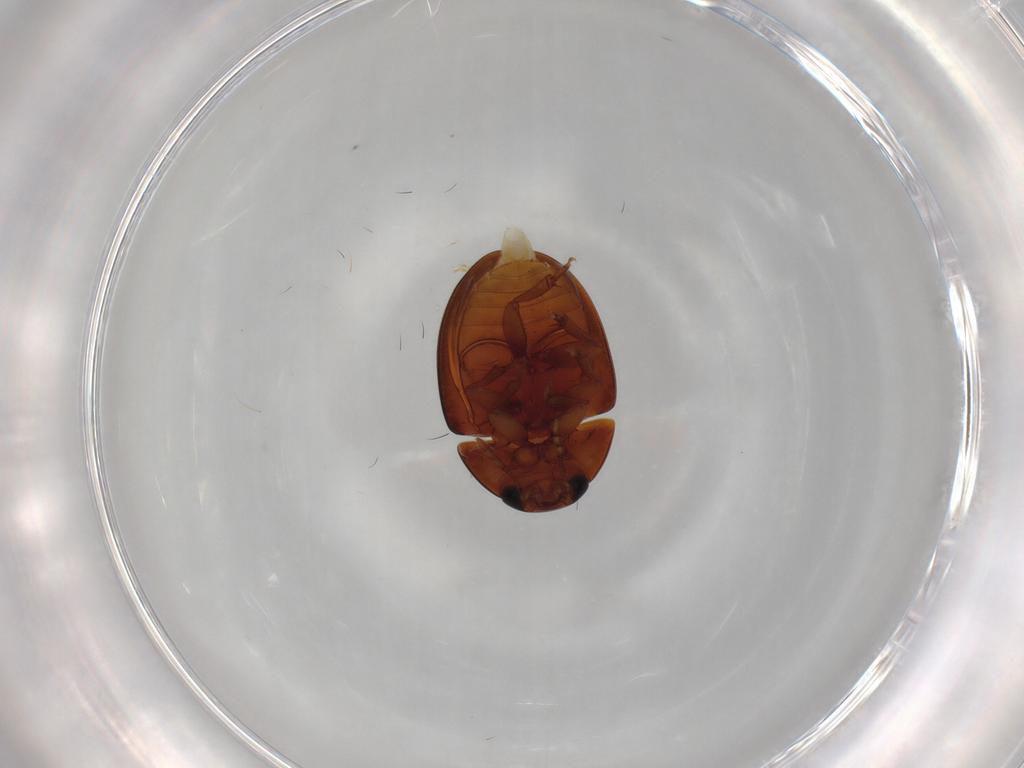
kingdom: Animalia
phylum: Arthropoda
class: Insecta
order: Coleoptera
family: Phalacridae
